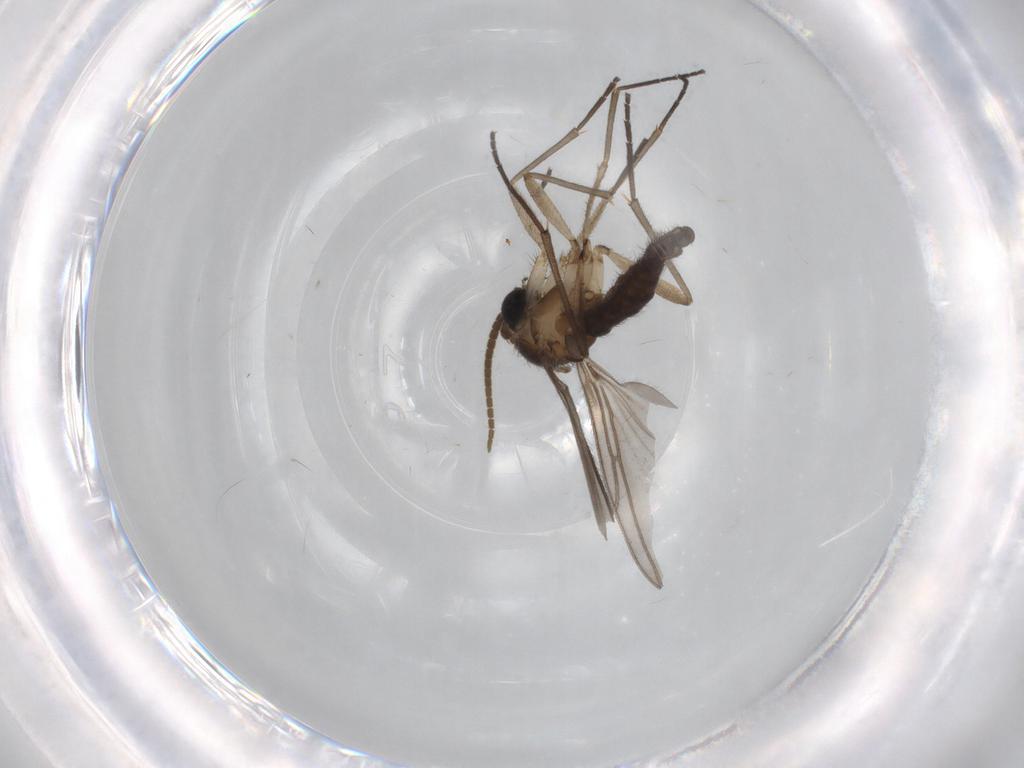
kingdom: Animalia
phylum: Arthropoda
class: Insecta
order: Diptera
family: Cecidomyiidae
